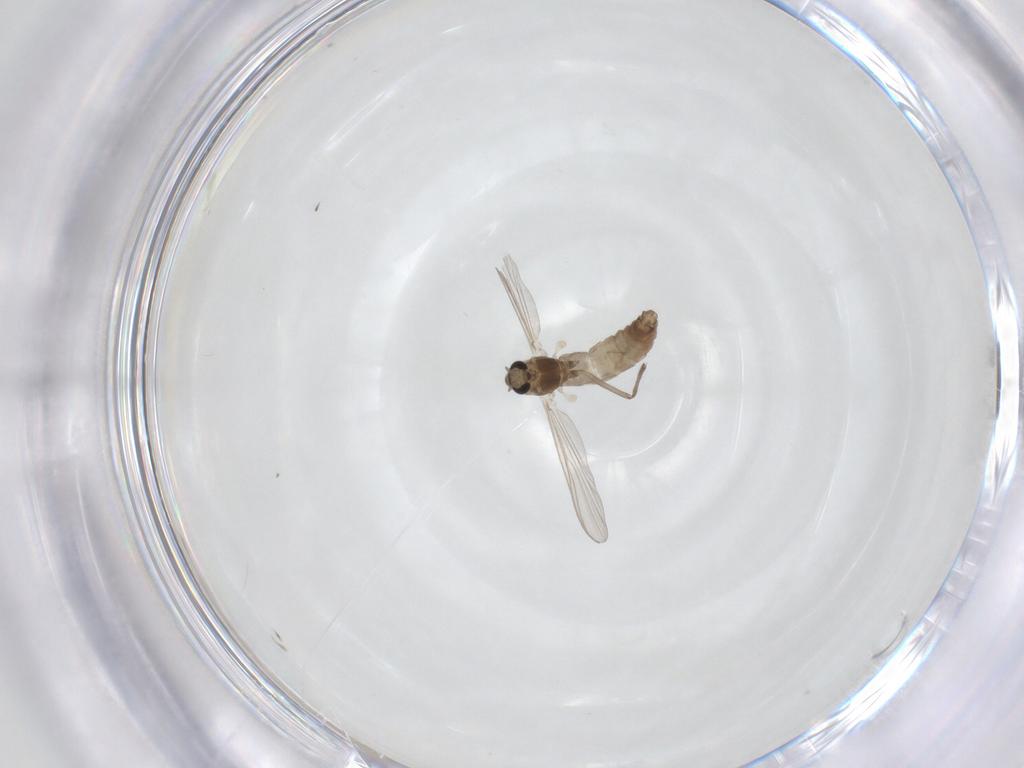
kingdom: Animalia
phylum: Arthropoda
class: Insecta
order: Diptera
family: Chironomidae
